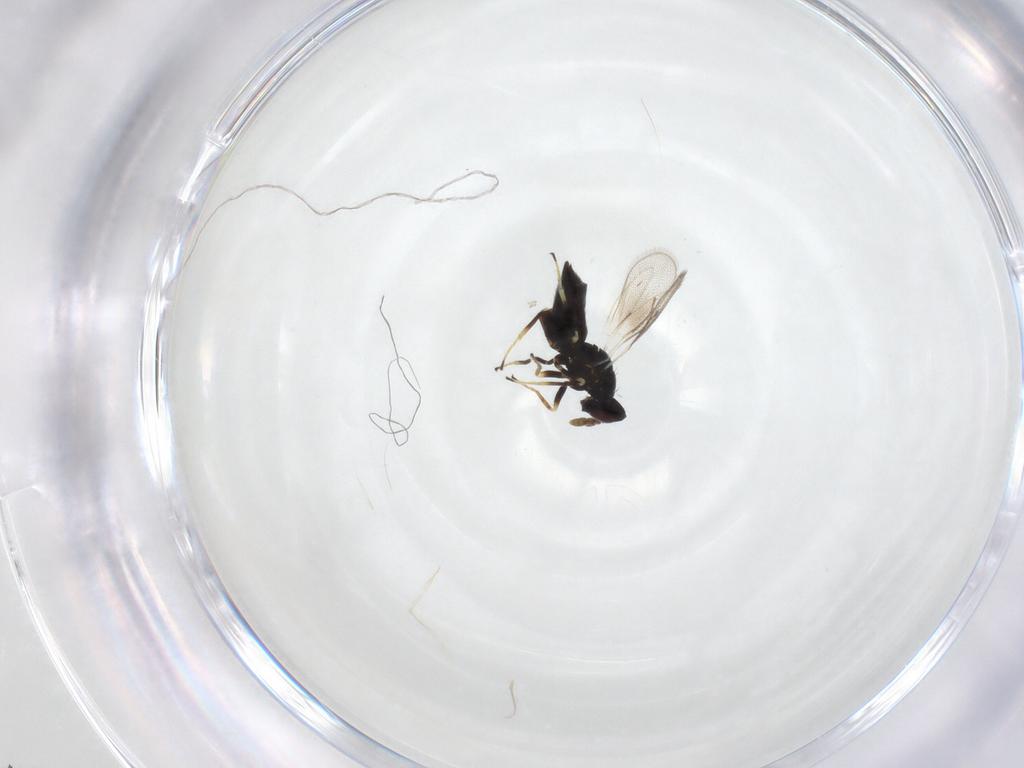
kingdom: Animalia
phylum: Arthropoda
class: Insecta
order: Hymenoptera
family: Eulophidae
